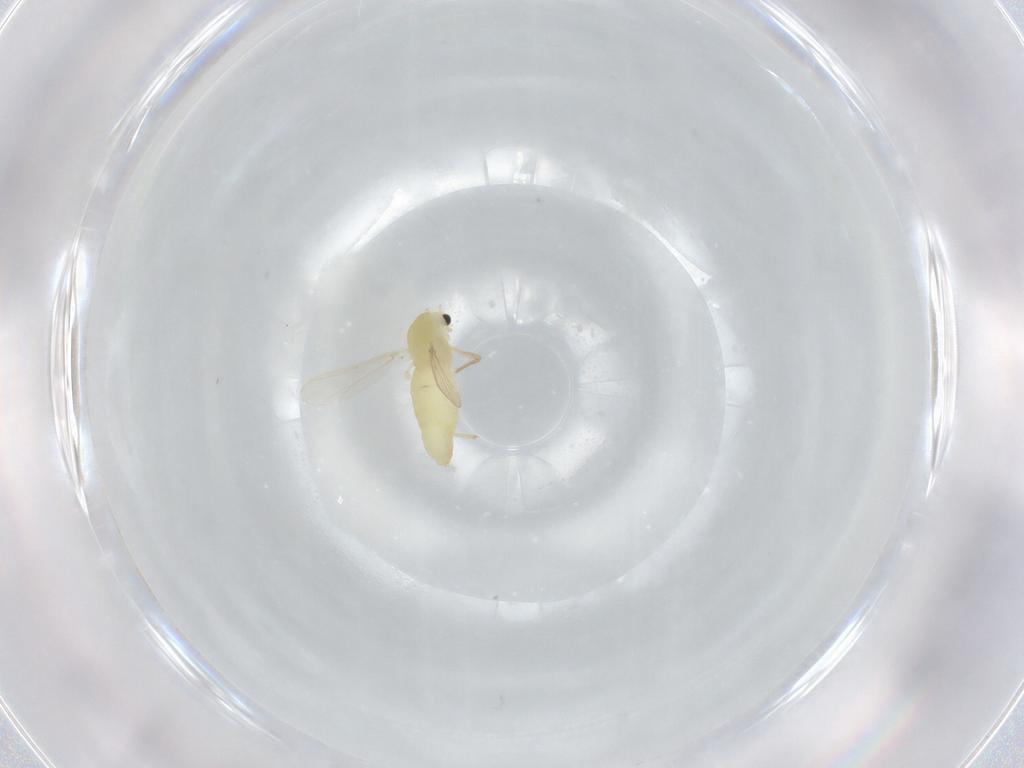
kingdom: Animalia
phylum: Arthropoda
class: Insecta
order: Diptera
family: Chironomidae
